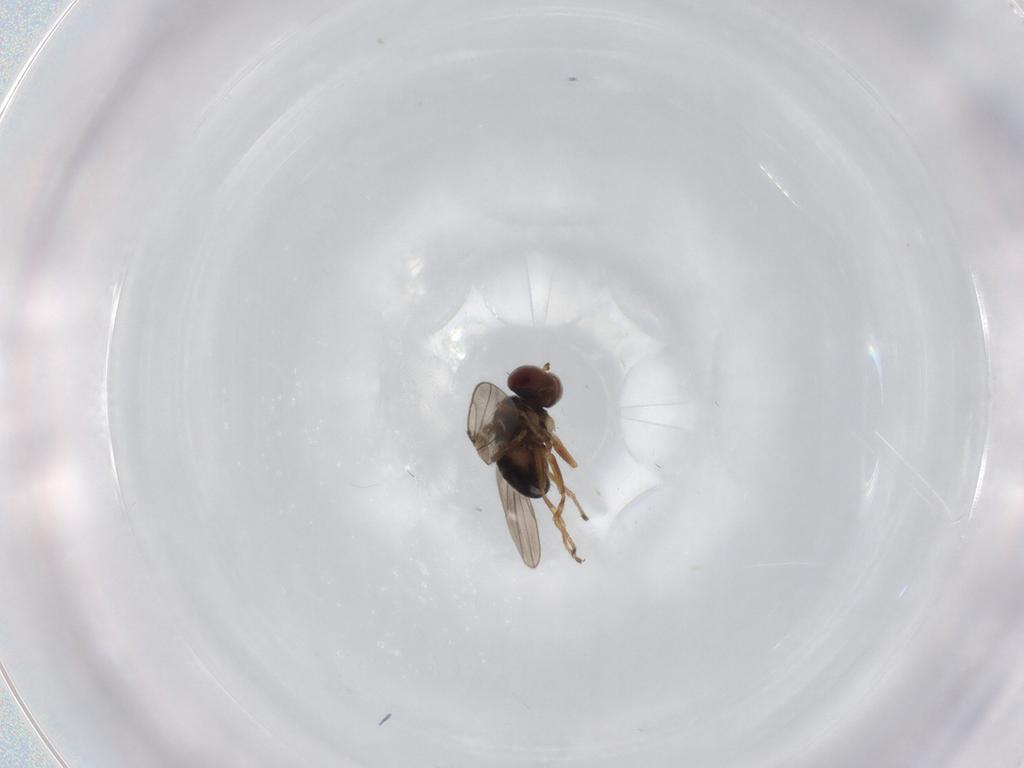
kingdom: Animalia
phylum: Arthropoda
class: Insecta
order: Diptera
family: Ephydridae
